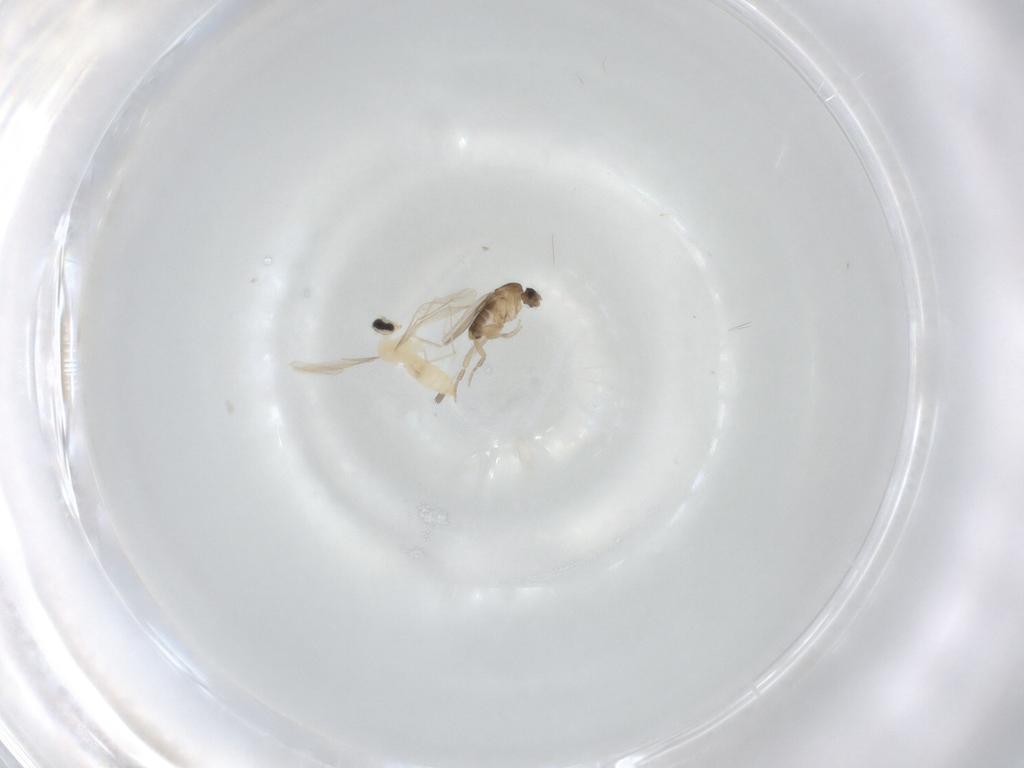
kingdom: Animalia
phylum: Arthropoda
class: Insecta
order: Diptera
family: Cecidomyiidae
